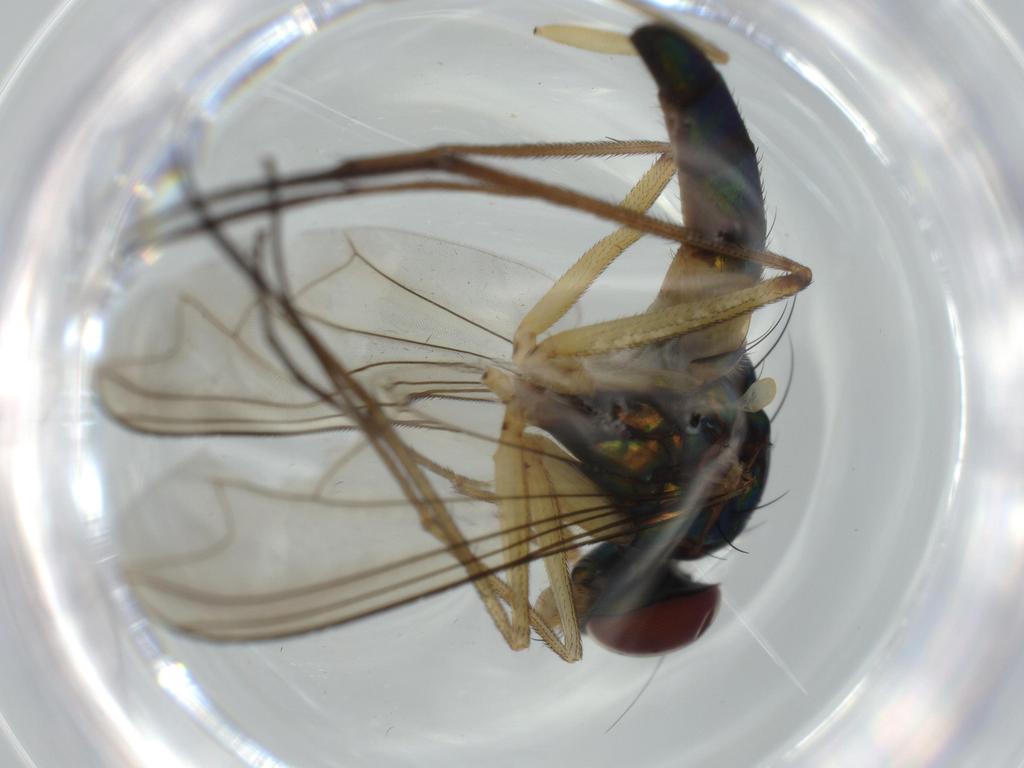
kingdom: Animalia
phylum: Arthropoda
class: Insecta
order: Diptera
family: Dolichopodidae
